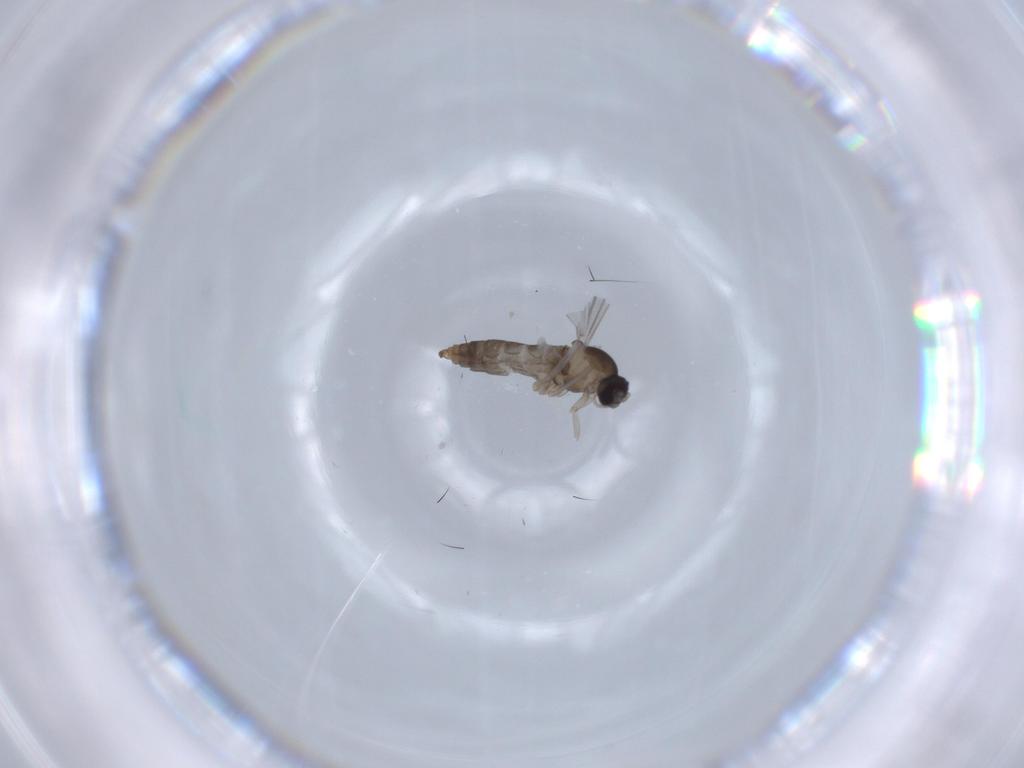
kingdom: Animalia
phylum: Arthropoda
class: Insecta
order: Diptera
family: Cecidomyiidae
